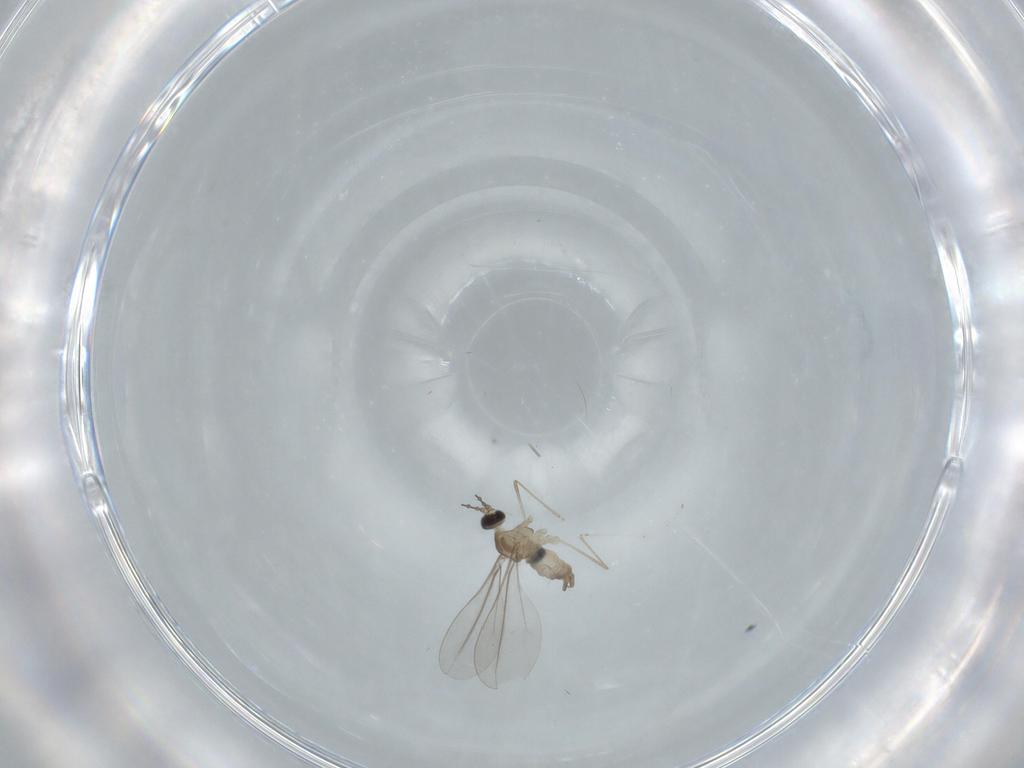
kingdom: Animalia
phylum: Arthropoda
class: Insecta
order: Diptera
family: Cecidomyiidae
